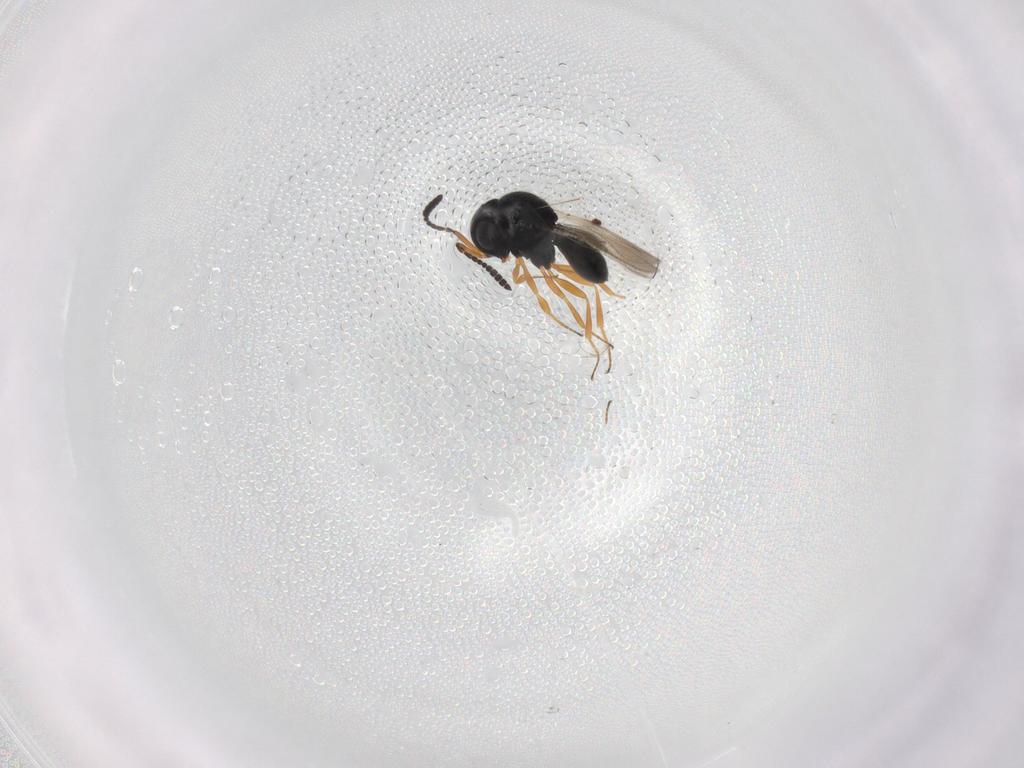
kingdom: Animalia
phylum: Arthropoda
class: Insecta
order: Hymenoptera
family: Scelionidae
